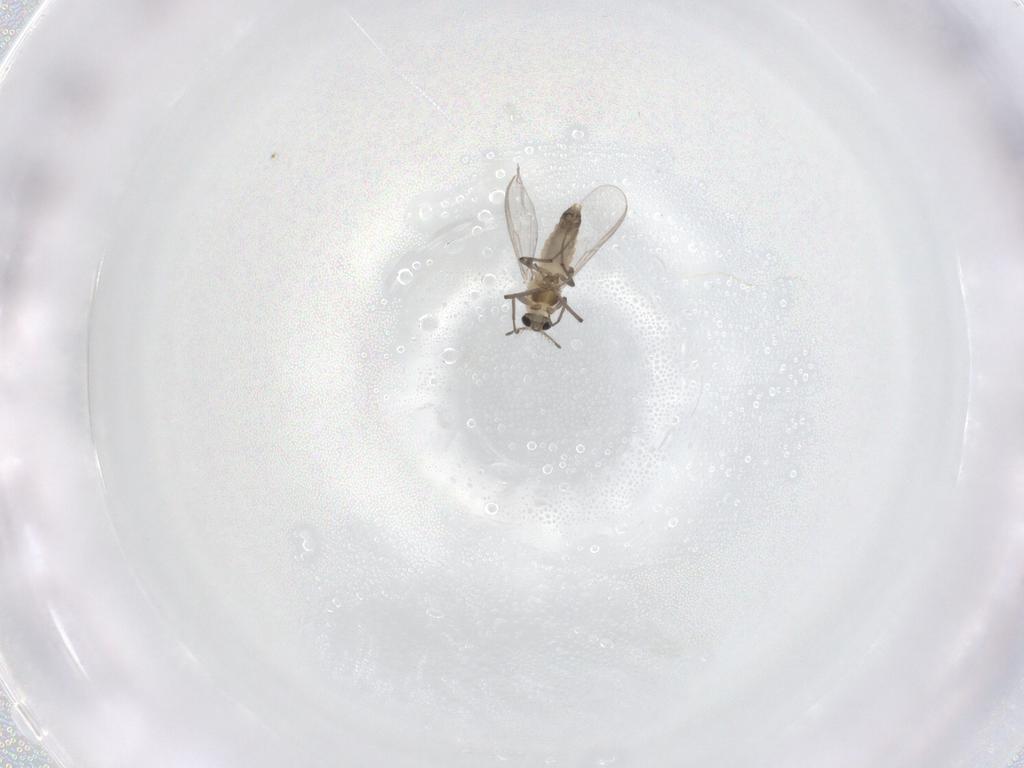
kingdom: Animalia
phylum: Arthropoda
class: Insecta
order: Diptera
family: Chironomidae
